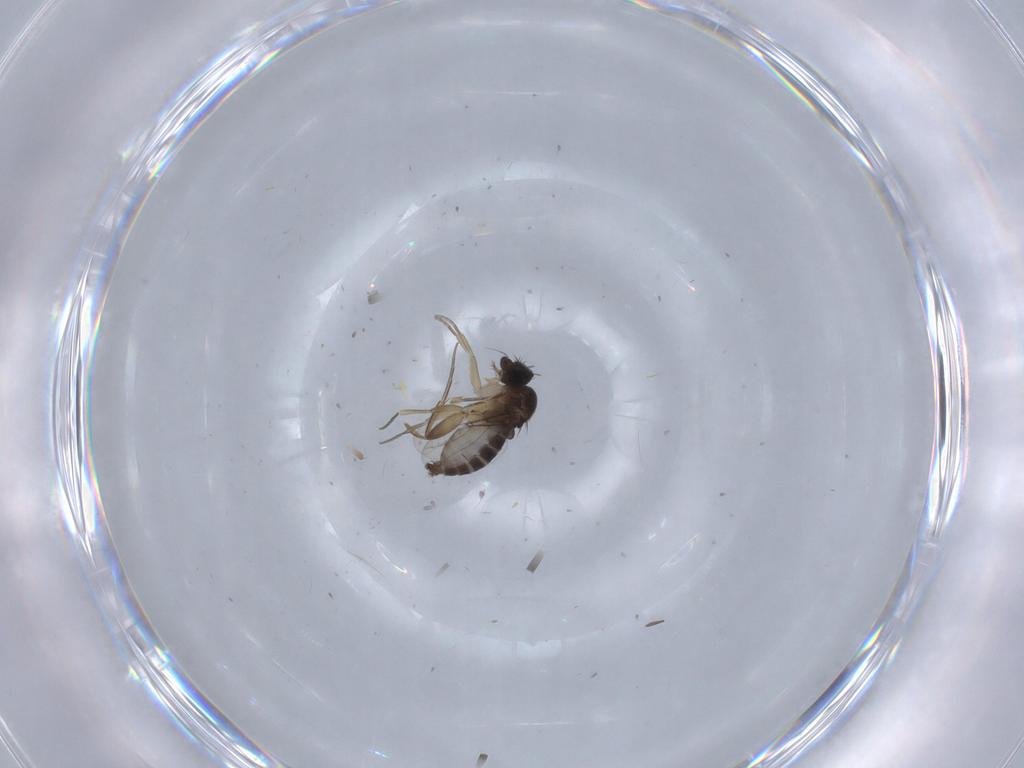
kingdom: Animalia
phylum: Arthropoda
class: Insecta
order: Diptera
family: Phoridae
